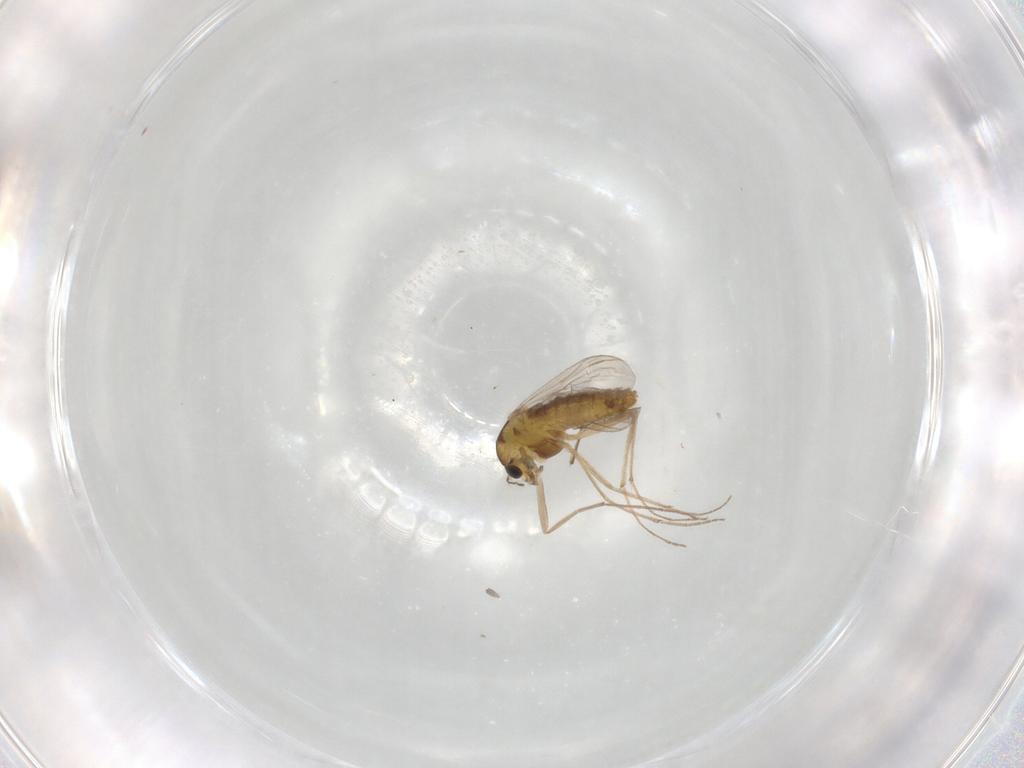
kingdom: Animalia
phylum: Arthropoda
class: Insecta
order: Diptera
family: Chironomidae
